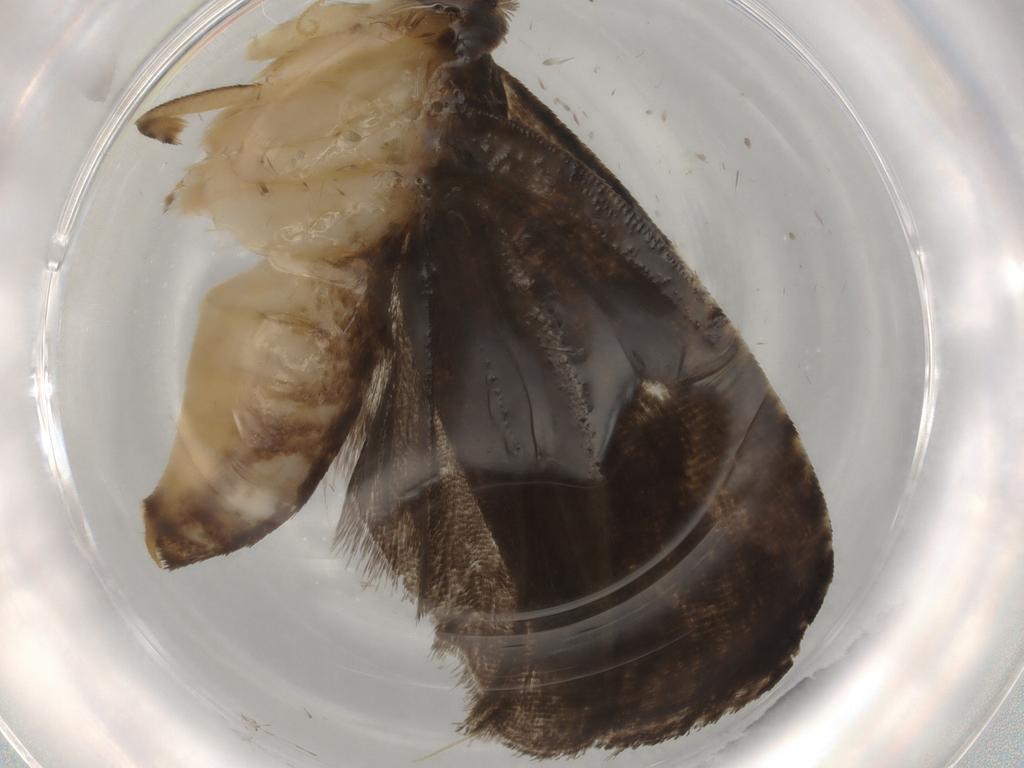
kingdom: Animalia
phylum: Arthropoda
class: Insecta
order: Lepidoptera
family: Tortricidae
